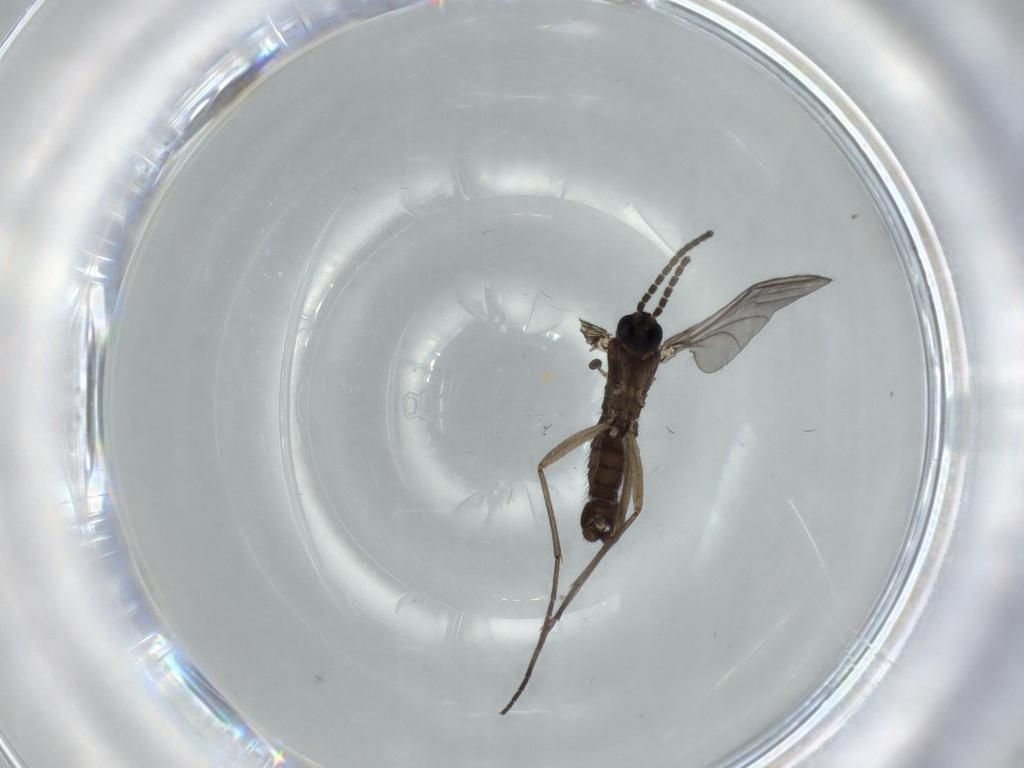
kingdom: Animalia
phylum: Arthropoda
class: Insecta
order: Diptera
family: Sciaridae
